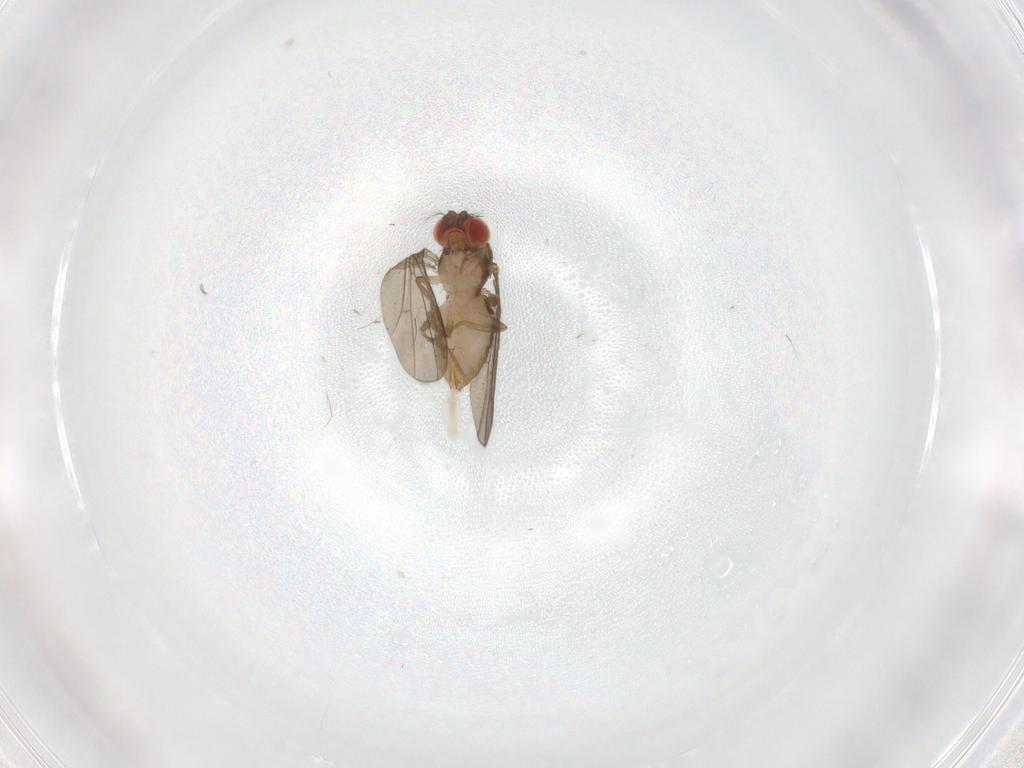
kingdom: Animalia
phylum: Arthropoda
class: Insecta
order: Diptera
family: Drosophilidae
